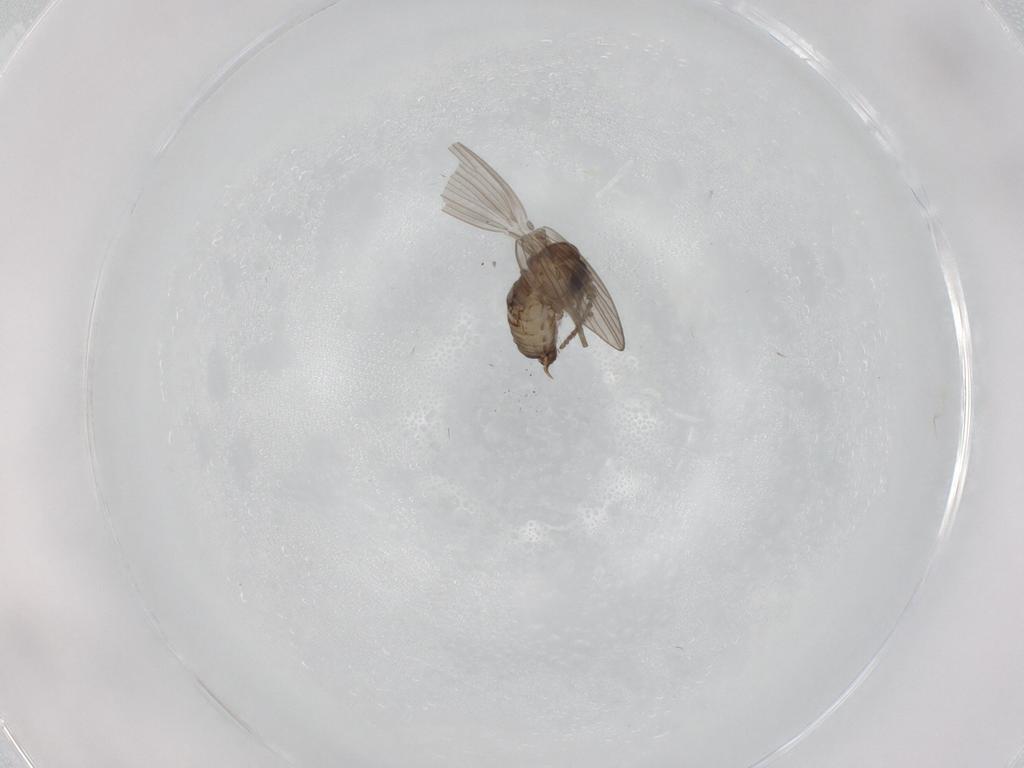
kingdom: Animalia
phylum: Arthropoda
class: Insecta
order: Diptera
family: Psychodidae
